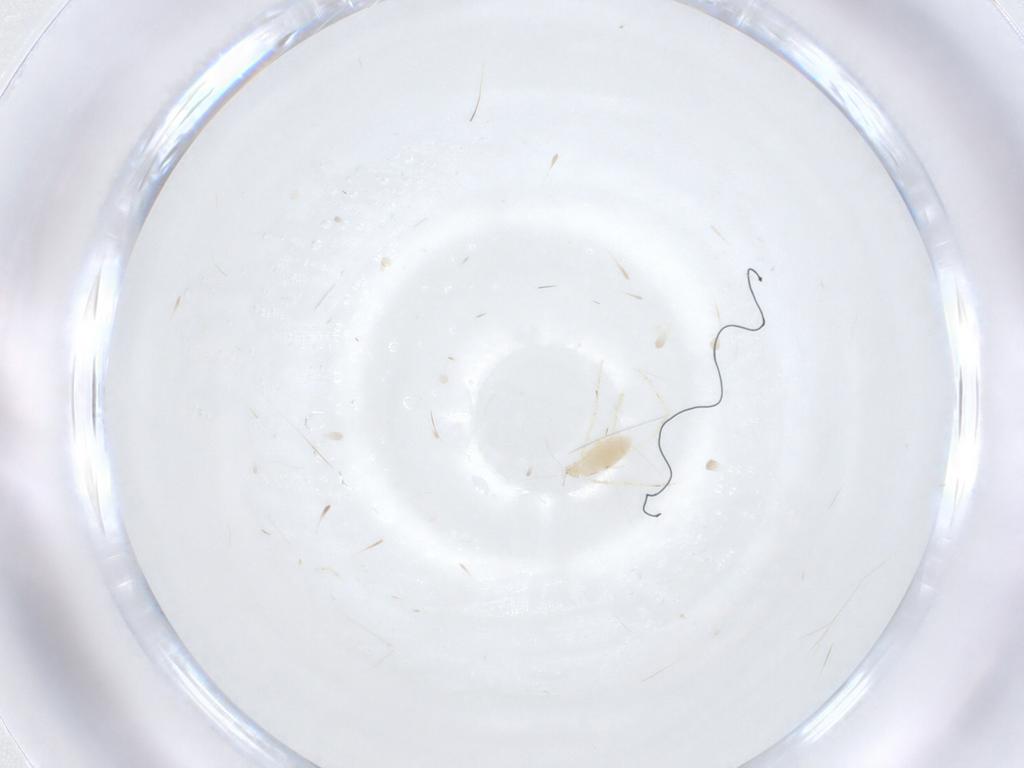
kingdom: Animalia
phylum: Arthropoda
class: Arachnida
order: Trombidiformes
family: Erythraeidae
